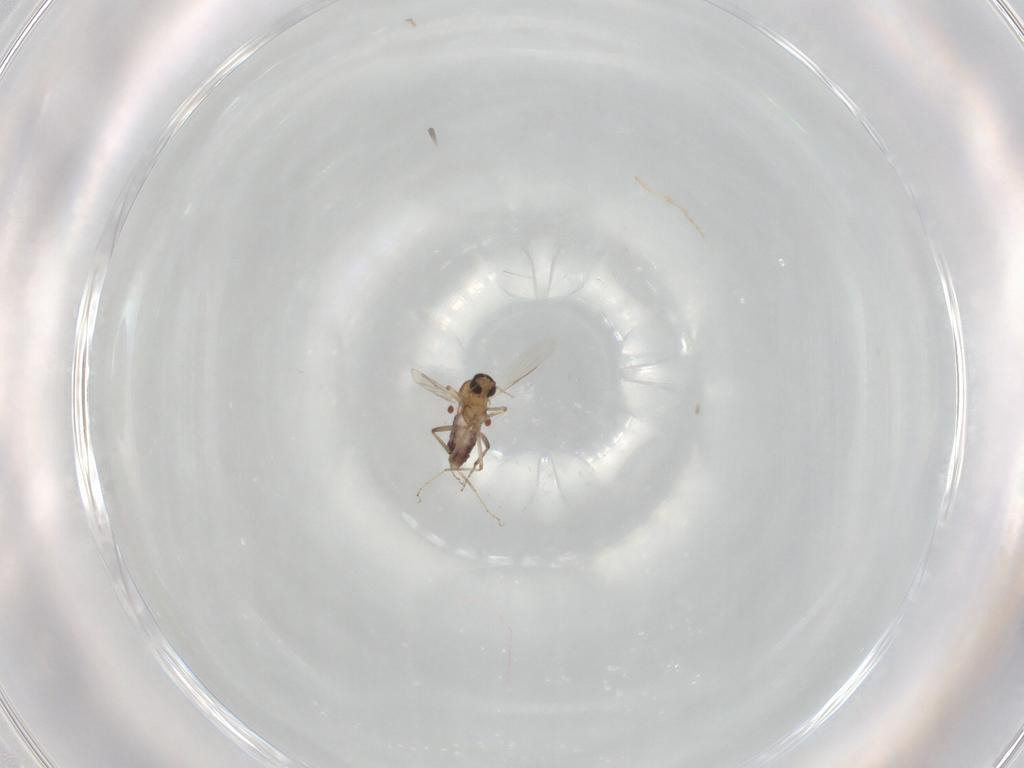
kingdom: Animalia
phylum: Arthropoda
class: Insecta
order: Diptera
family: Ceratopogonidae
